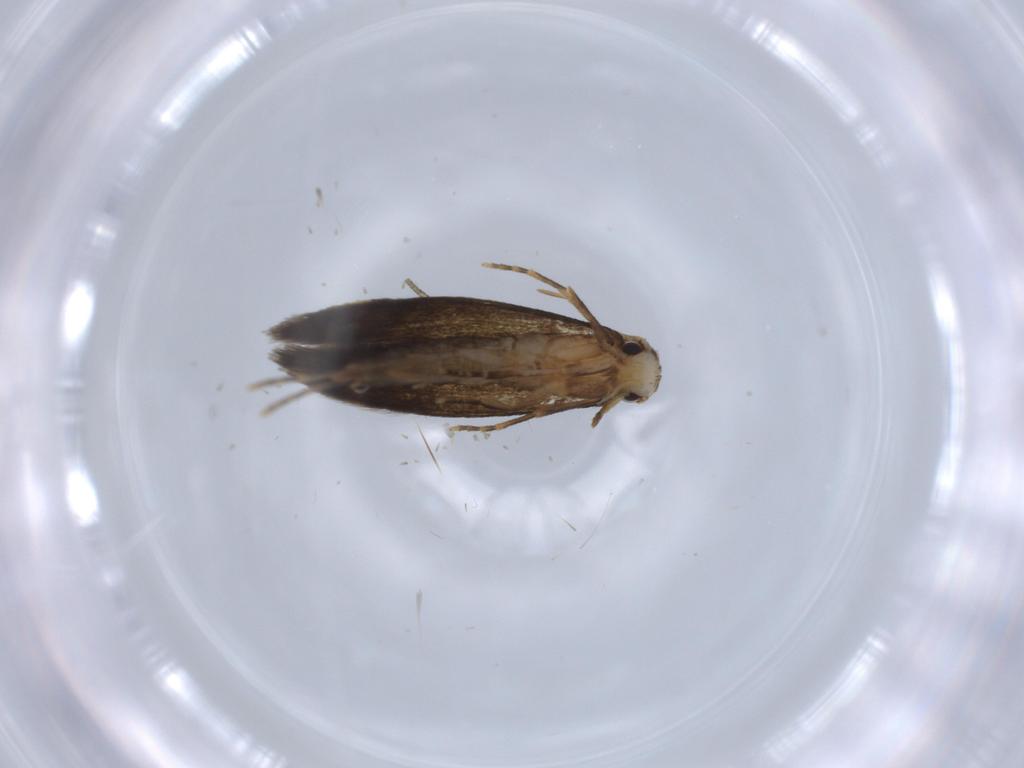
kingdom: Animalia
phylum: Arthropoda
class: Insecta
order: Lepidoptera
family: Tineidae
